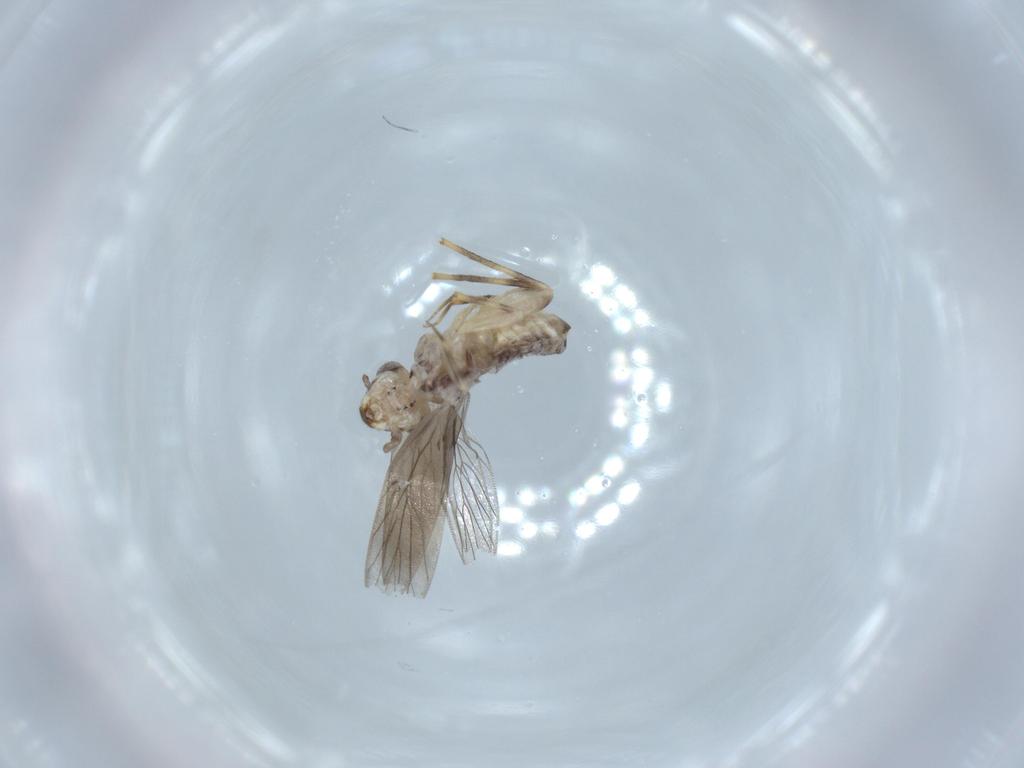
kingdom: Animalia
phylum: Arthropoda
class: Insecta
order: Psocodea
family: Lepidopsocidae
